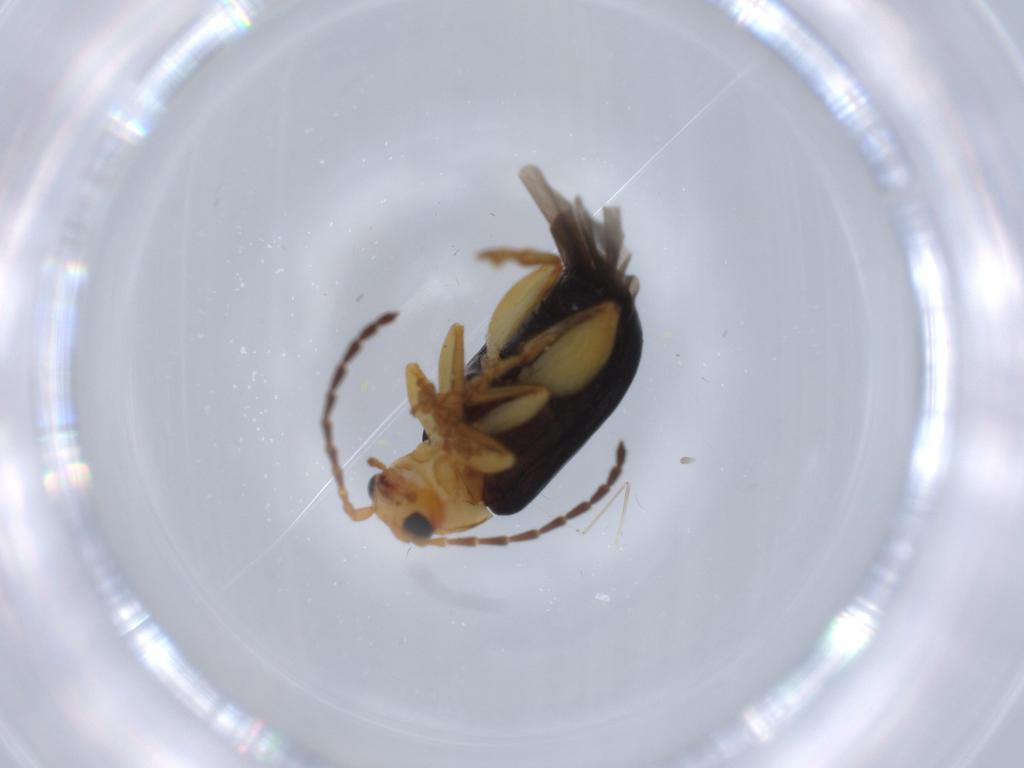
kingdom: Animalia
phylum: Arthropoda
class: Insecta
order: Coleoptera
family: Chrysomelidae
